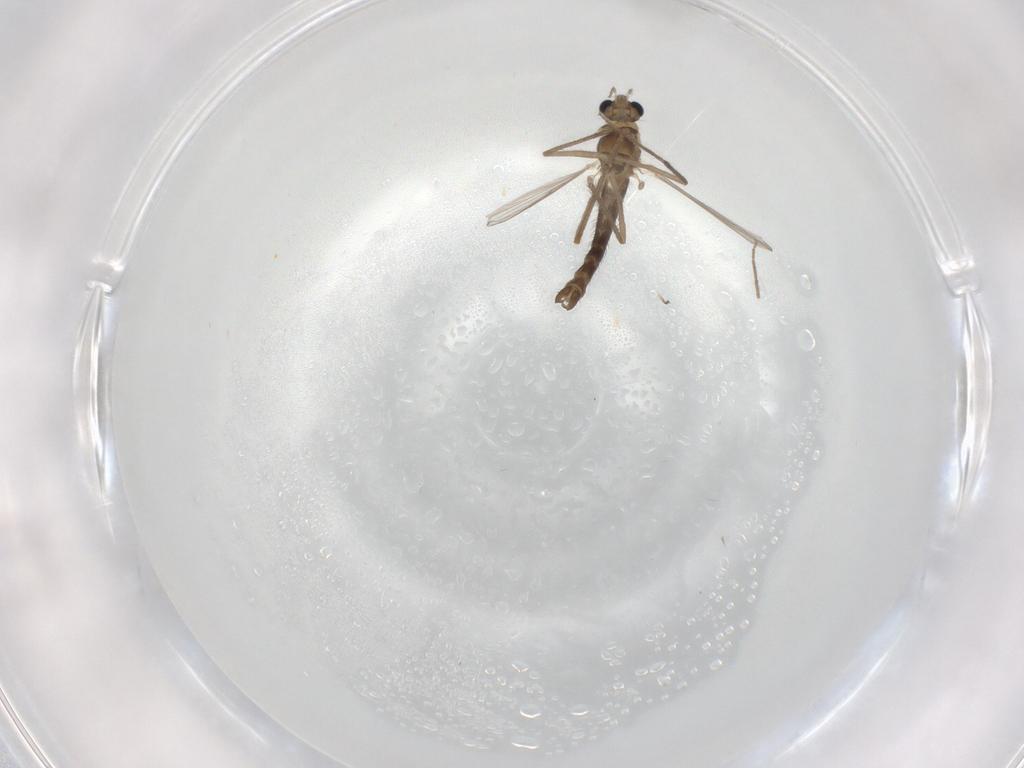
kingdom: Animalia
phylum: Arthropoda
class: Insecta
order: Diptera
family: Chironomidae
